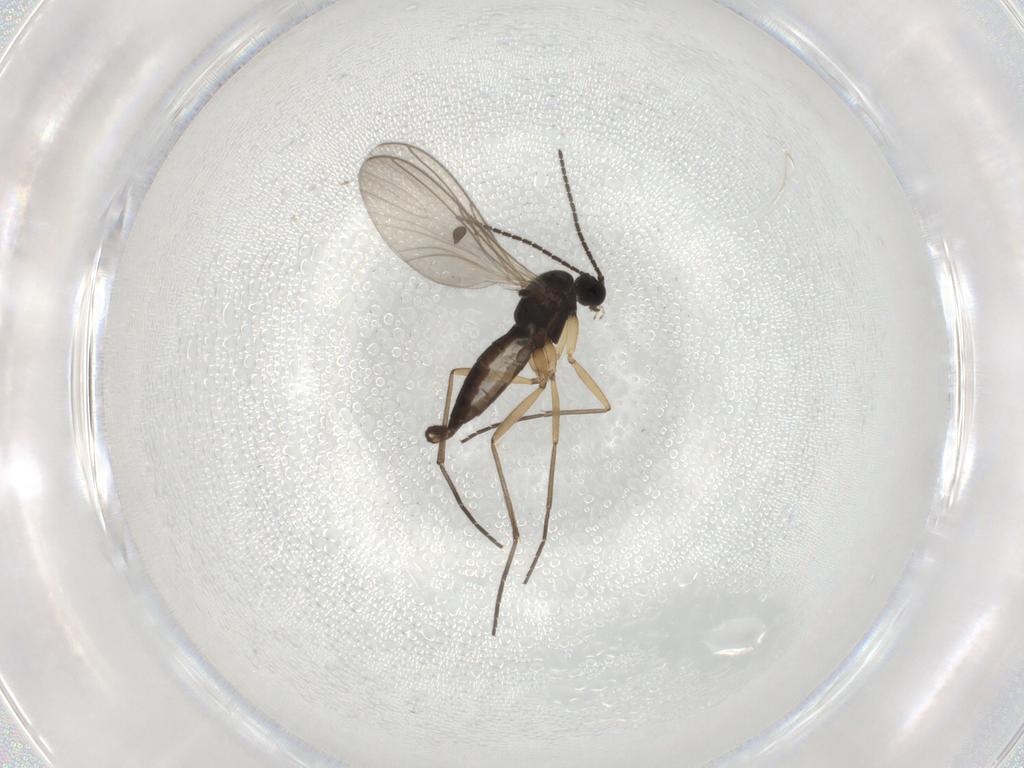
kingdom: Animalia
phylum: Arthropoda
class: Insecta
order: Diptera
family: Sciaridae
